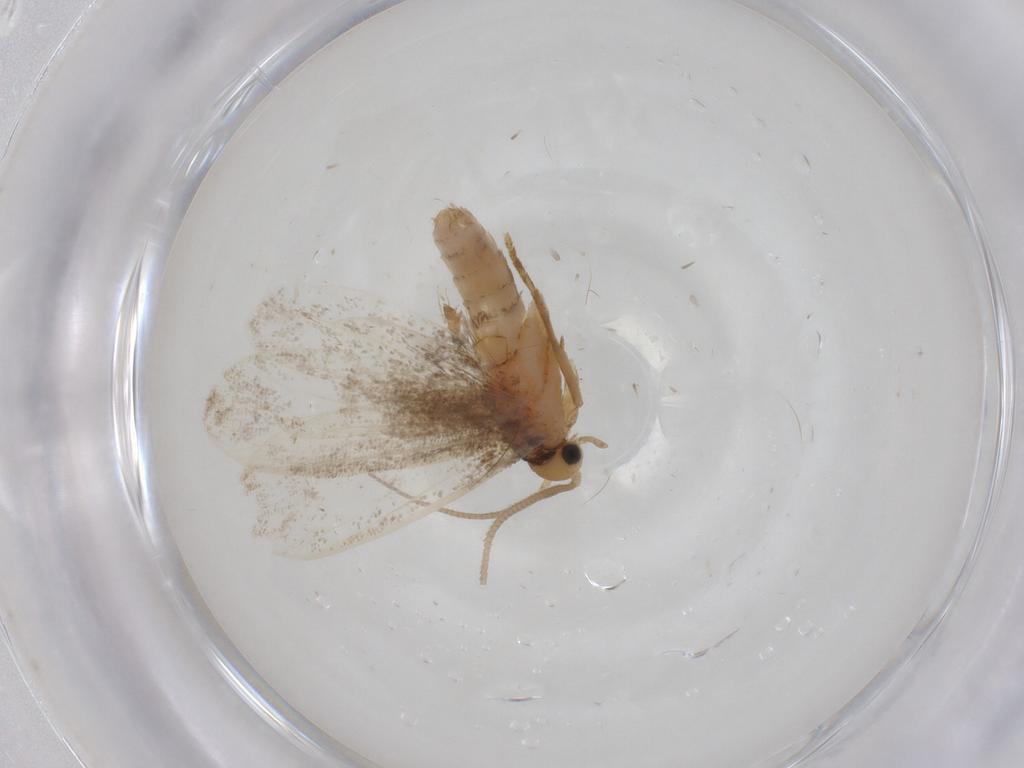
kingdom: Animalia
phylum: Arthropoda
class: Insecta
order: Lepidoptera
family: Dryadaulidae
